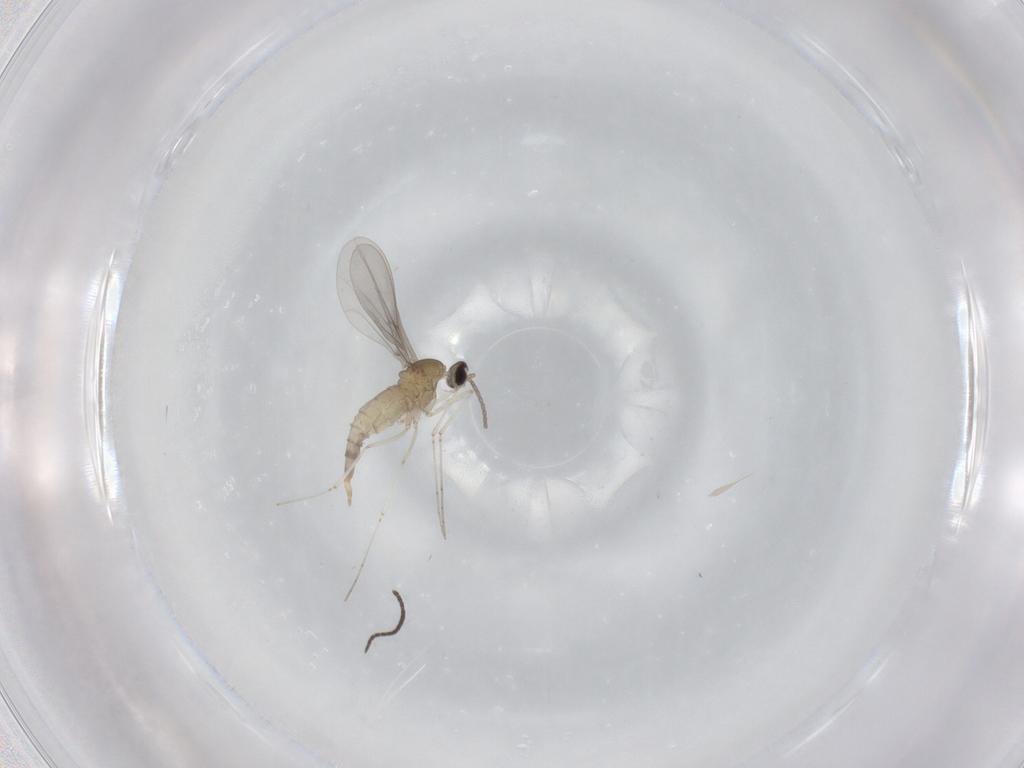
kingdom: Animalia
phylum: Arthropoda
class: Insecta
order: Diptera
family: Cecidomyiidae
